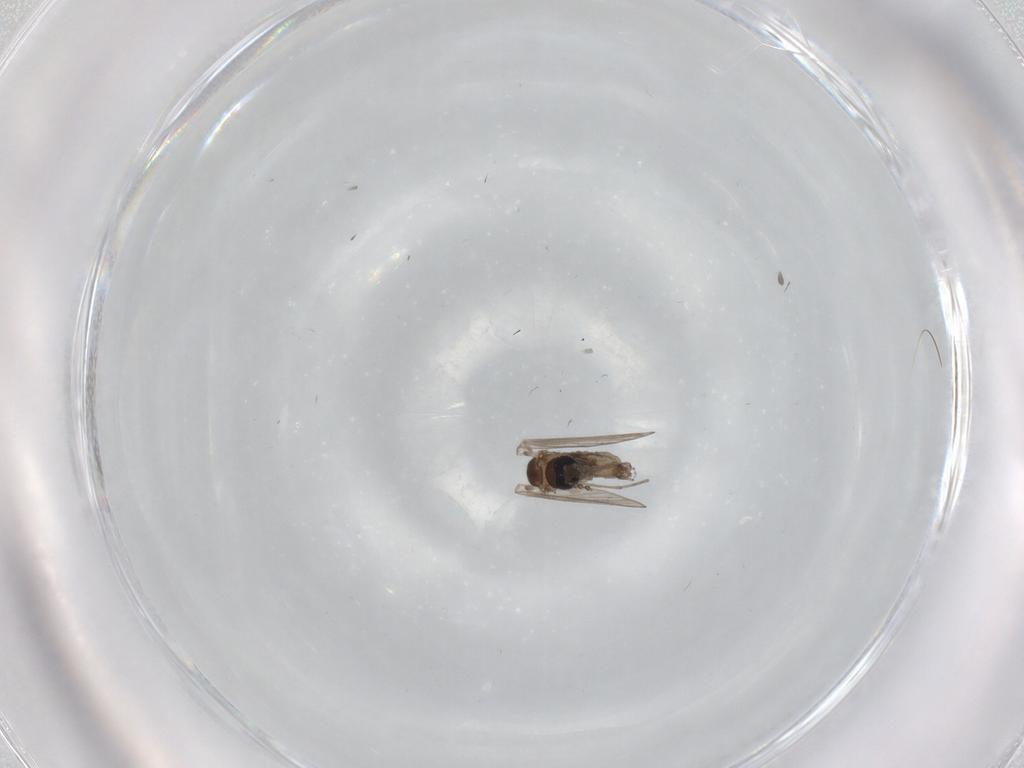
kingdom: Animalia
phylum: Arthropoda
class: Insecta
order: Diptera
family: Psychodidae
